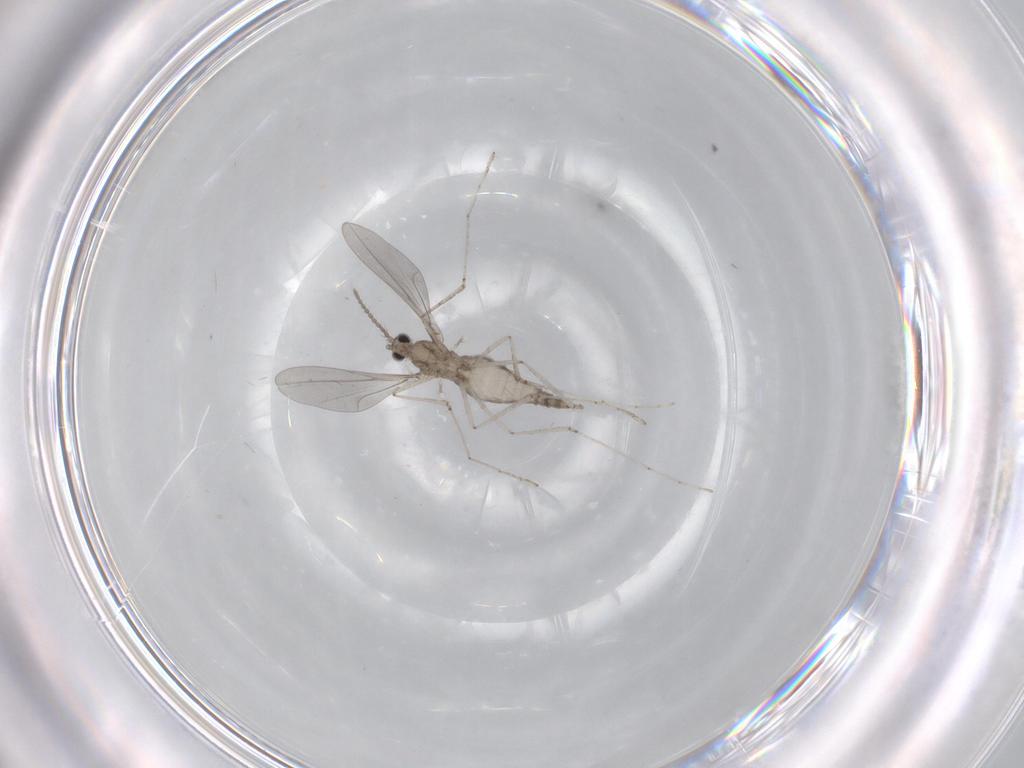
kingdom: Animalia
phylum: Arthropoda
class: Insecta
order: Diptera
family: Cecidomyiidae
